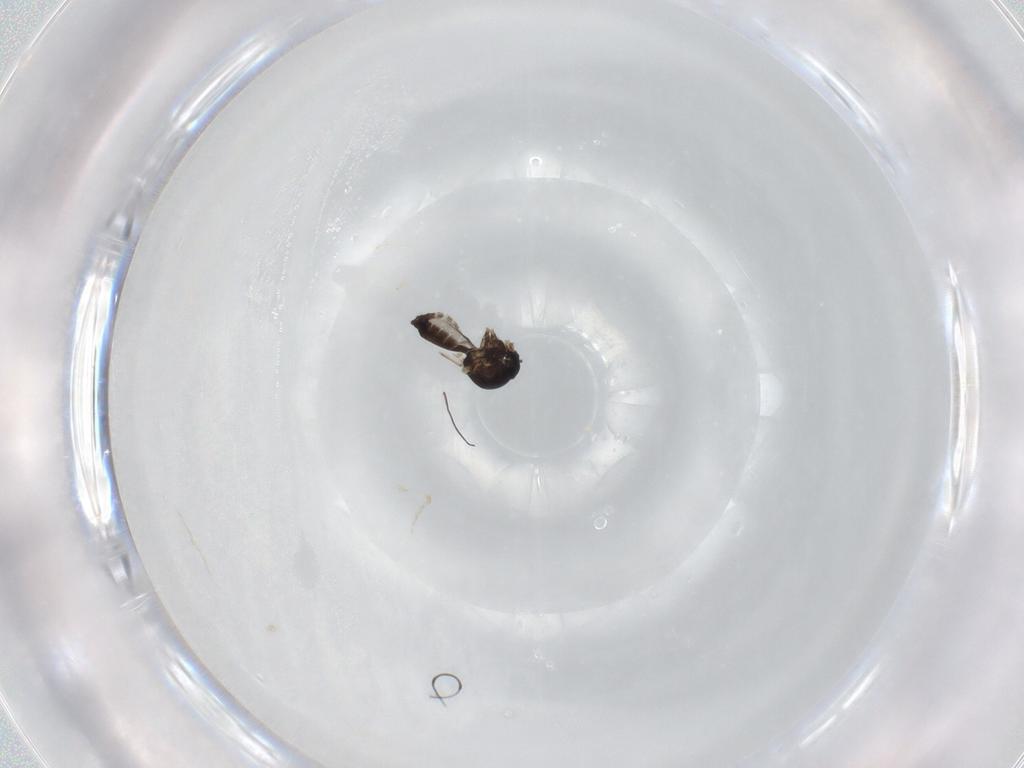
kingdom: Animalia
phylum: Arthropoda
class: Insecta
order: Diptera
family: Ceratopogonidae
